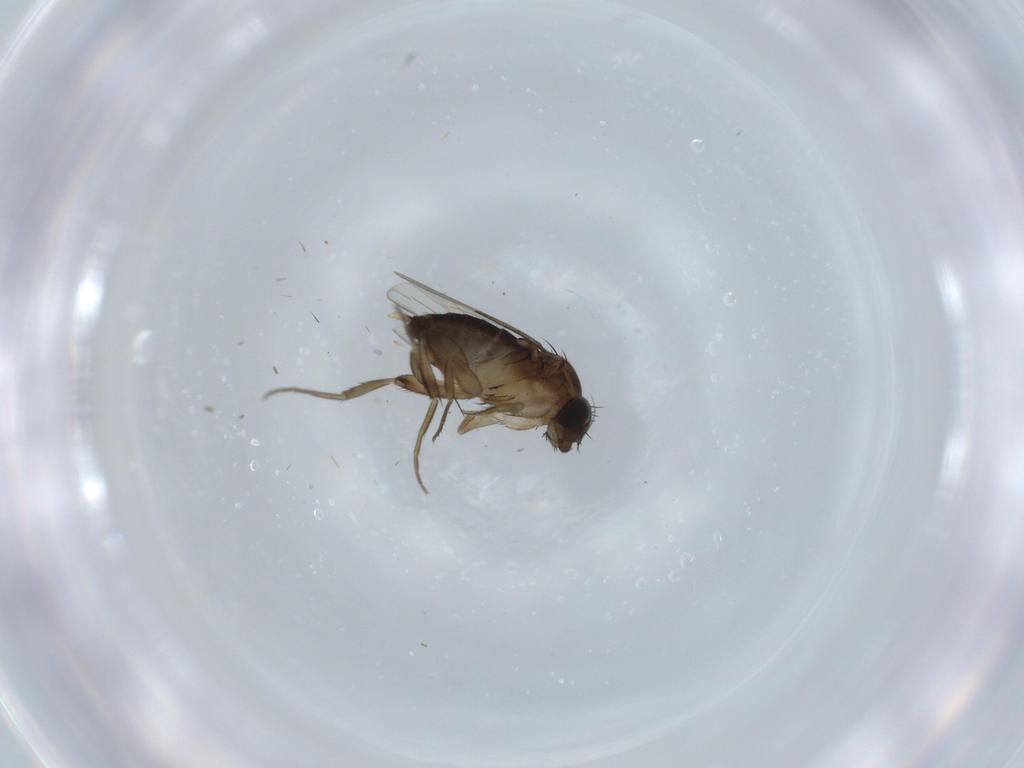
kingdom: Animalia
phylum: Arthropoda
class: Insecta
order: Diptera
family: Phoridae
